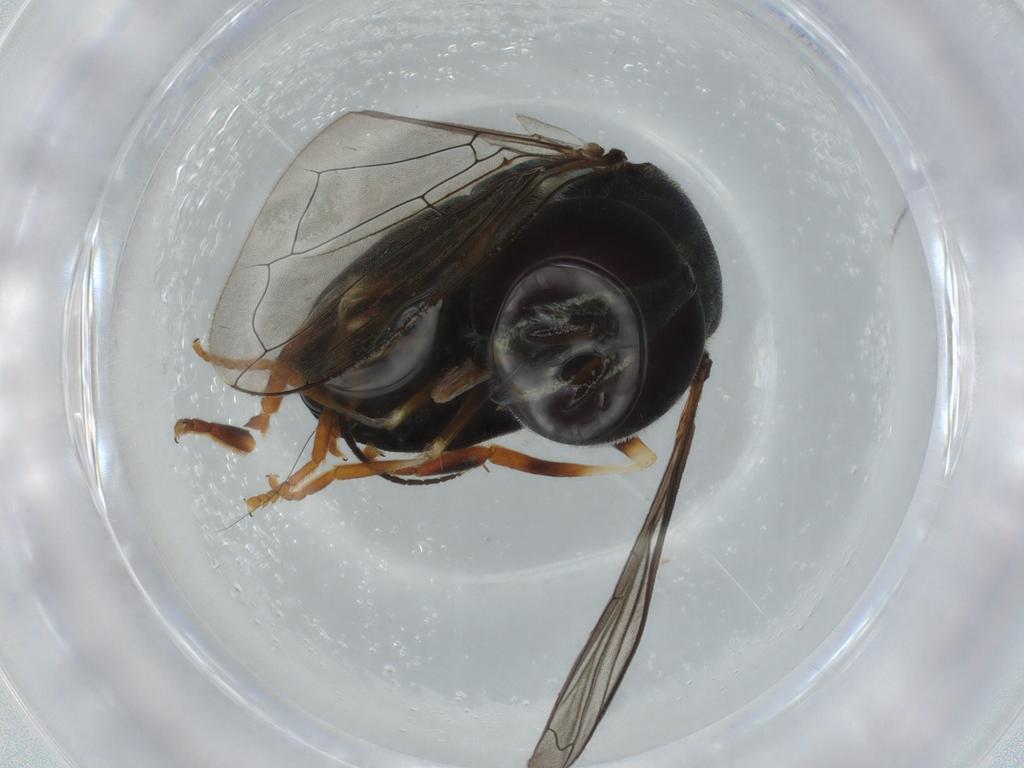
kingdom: Animalia
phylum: Arthropoda
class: Insecta
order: Diptera
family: Syrphidae
